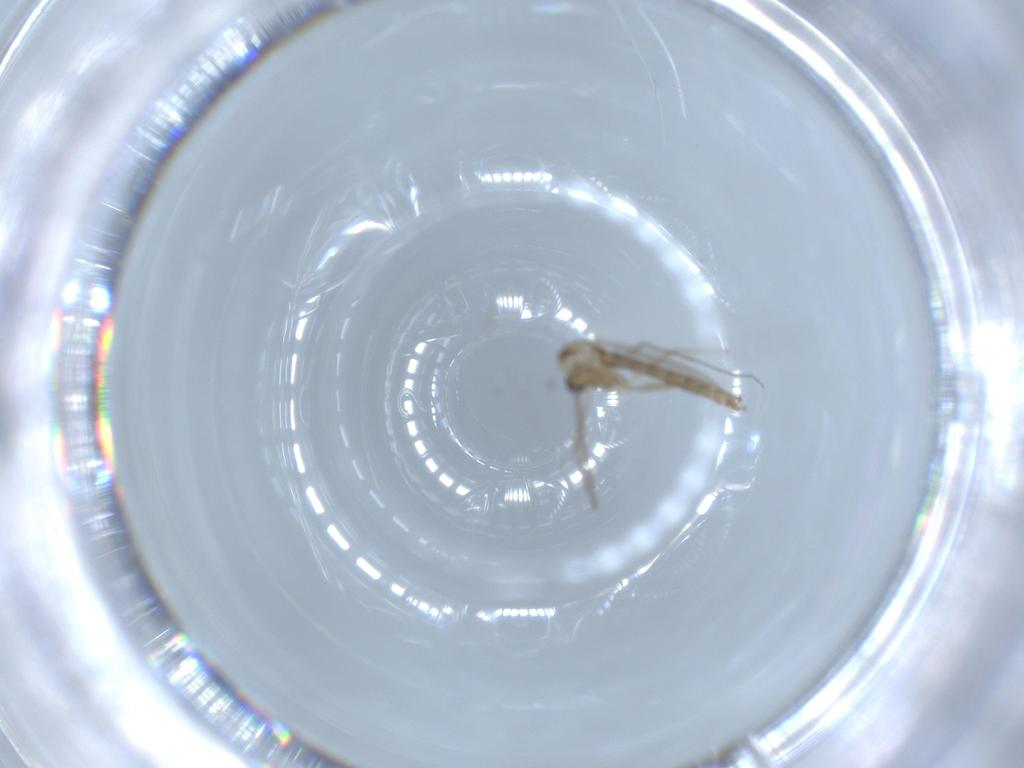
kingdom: Animalia
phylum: Arthropoda
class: Insecta
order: Diptera
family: Chironomidae
